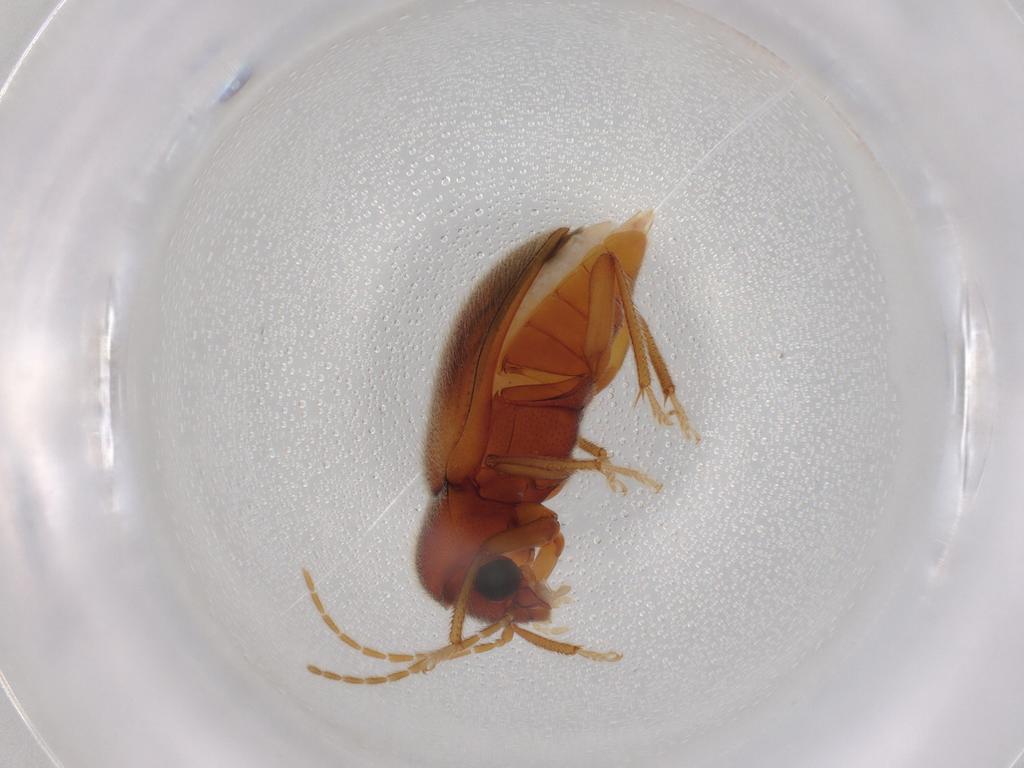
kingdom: Animalia
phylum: Arthropoda
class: Insecta
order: Coleoptera
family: Ptilodactylidae
